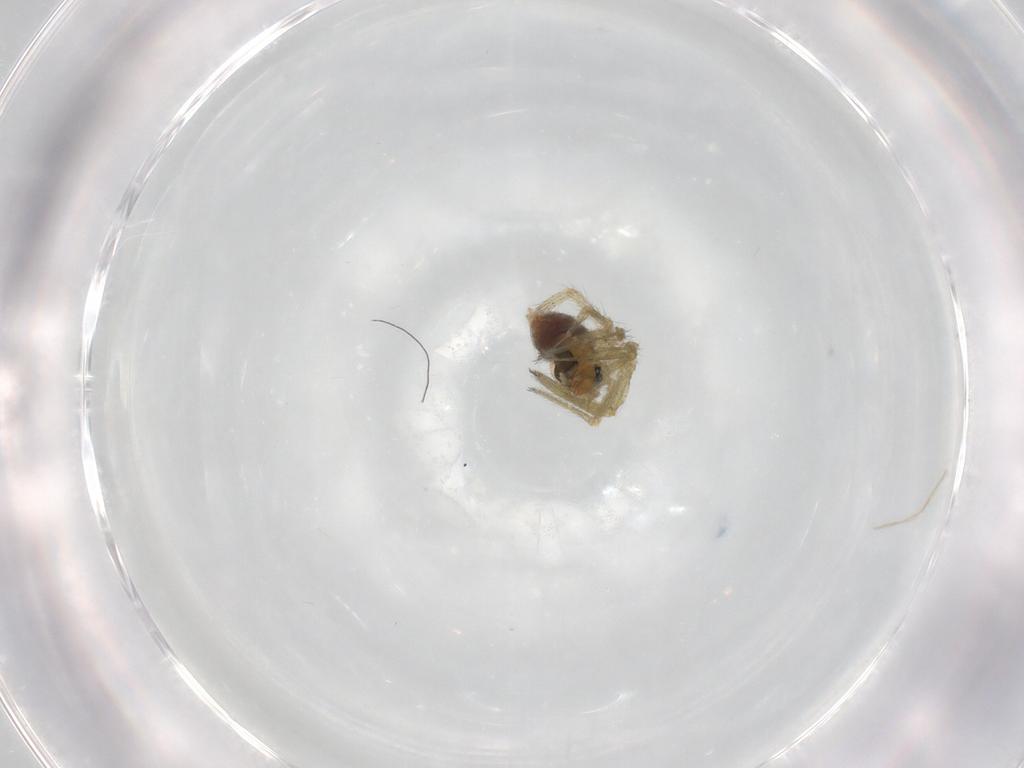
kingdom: Animalia
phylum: Arthropoda
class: Arachnida
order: Araneae
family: Linyphiidae
